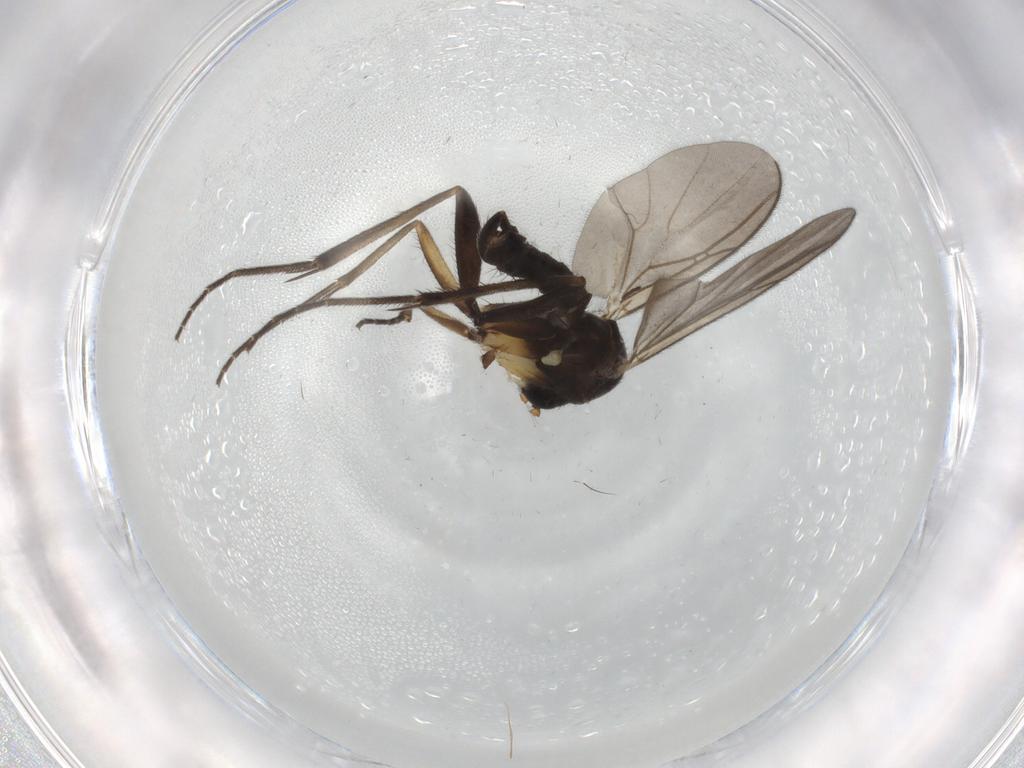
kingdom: Animalia
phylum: Arthropoda
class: Insecta
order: Diptera
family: Mycetophilidae
